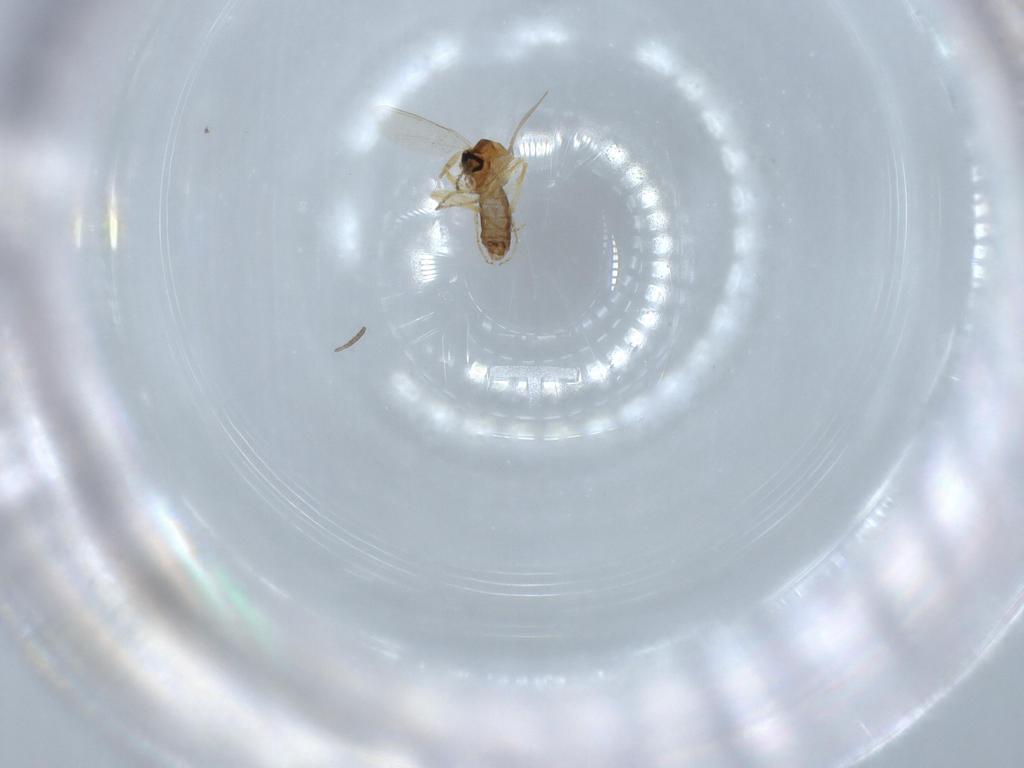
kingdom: Animalia
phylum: Arthropoda
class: Insecta
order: Diptera
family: Ceratopogonidae
